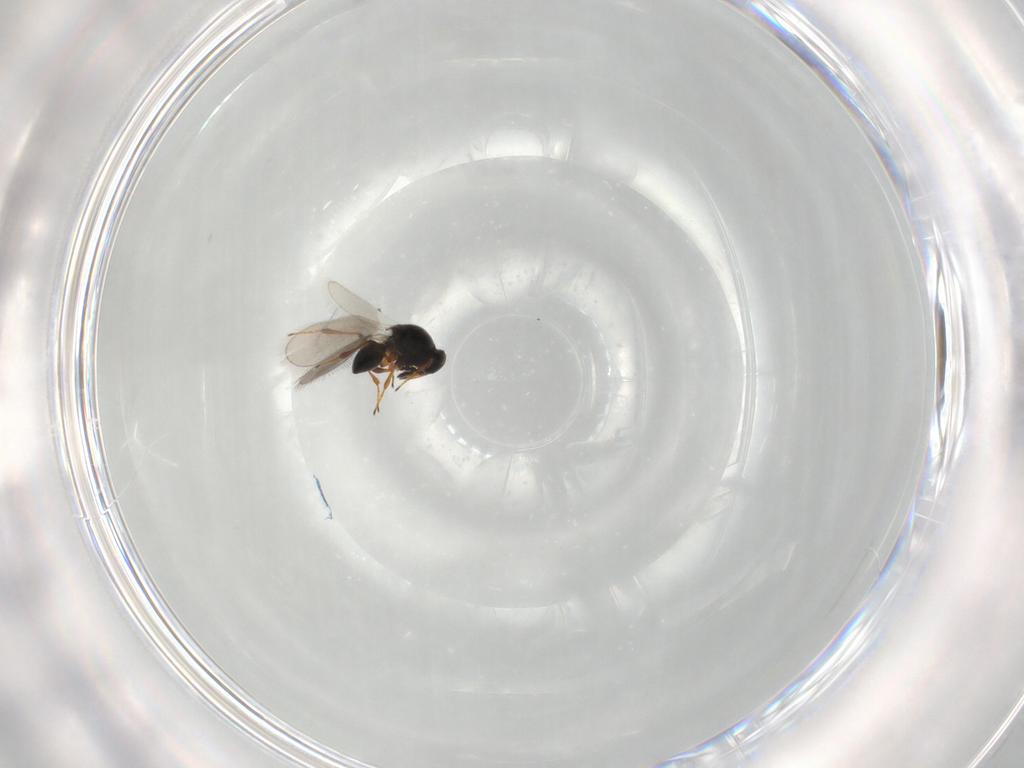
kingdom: Animalia
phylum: Arthropoda
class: Insecta
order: Hymenoptera
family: Platygastridae
